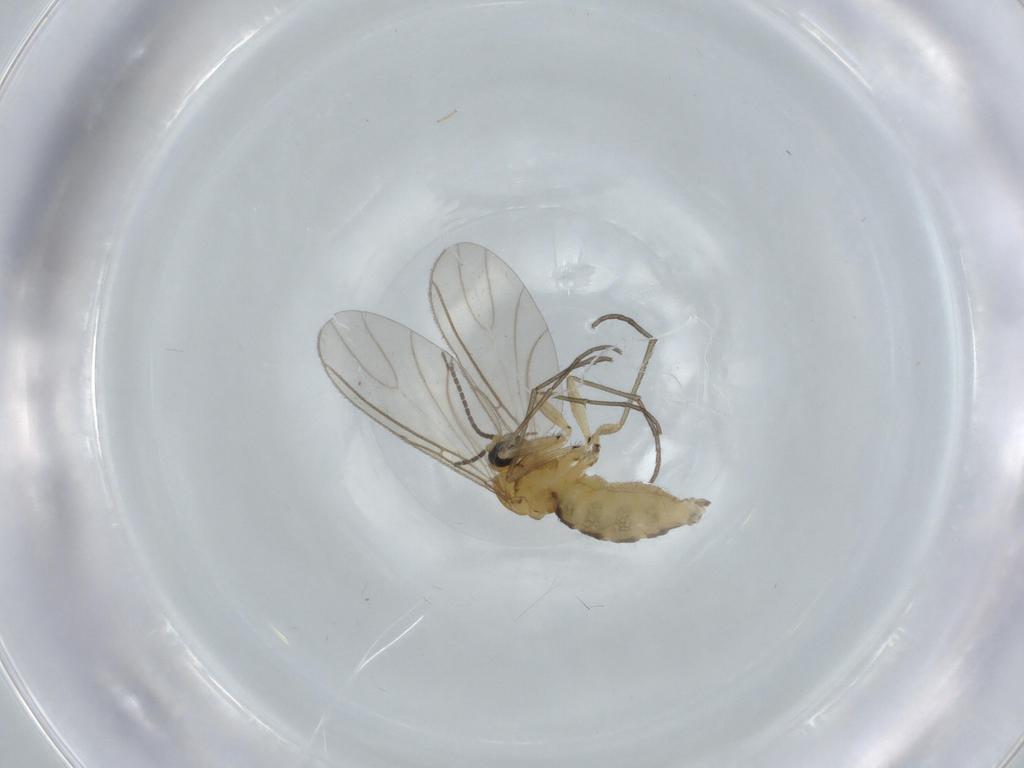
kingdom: Animalia
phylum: Arthropoda
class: Insecta
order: Diptera
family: Sciaridae
